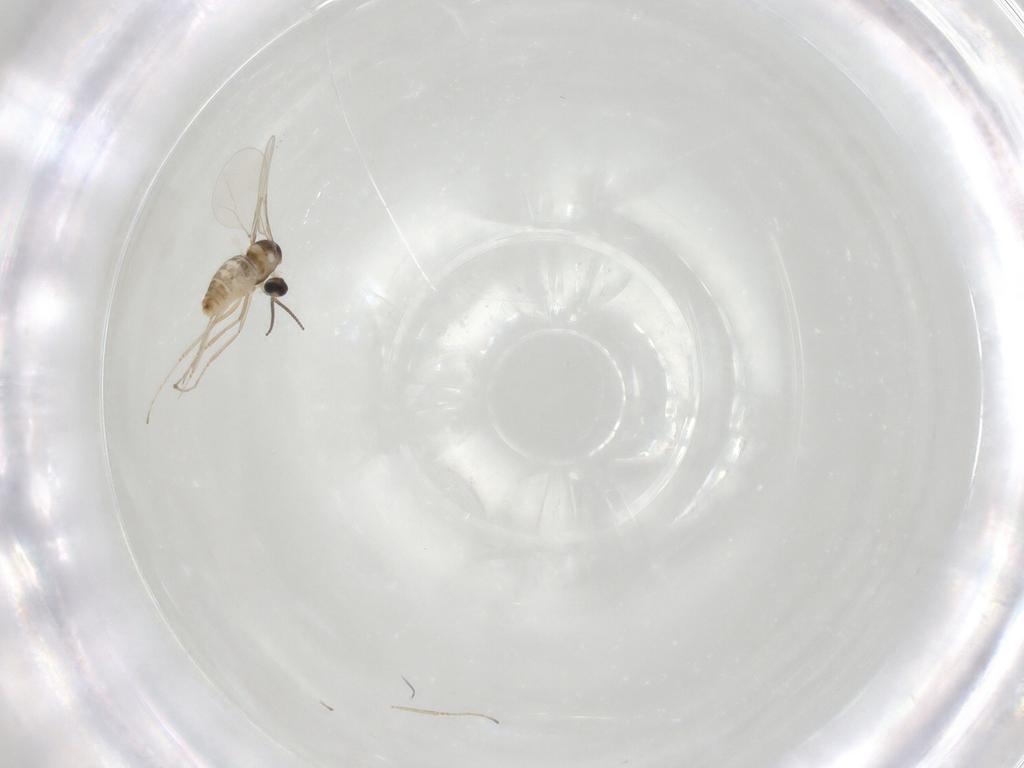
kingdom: Animalia
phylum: Arthropoda
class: Insecta
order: Diptera
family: Cecidomyiidae
